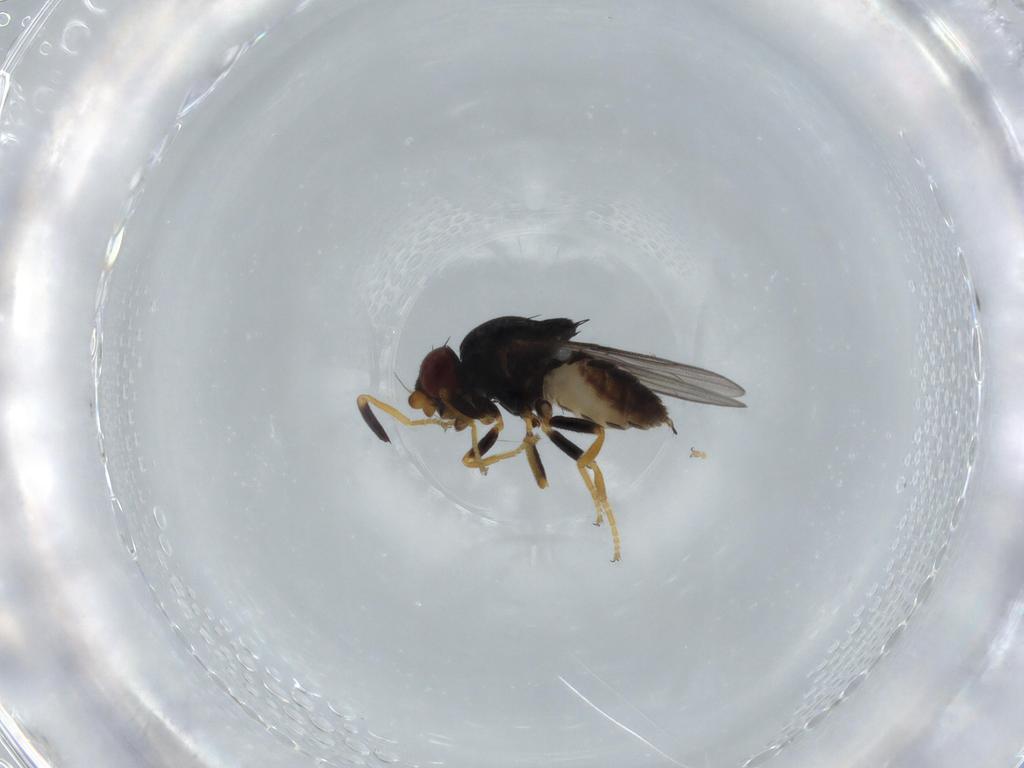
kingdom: Animalia
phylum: Arthropoda
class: Insecta
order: Diptera
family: Chloropidae
